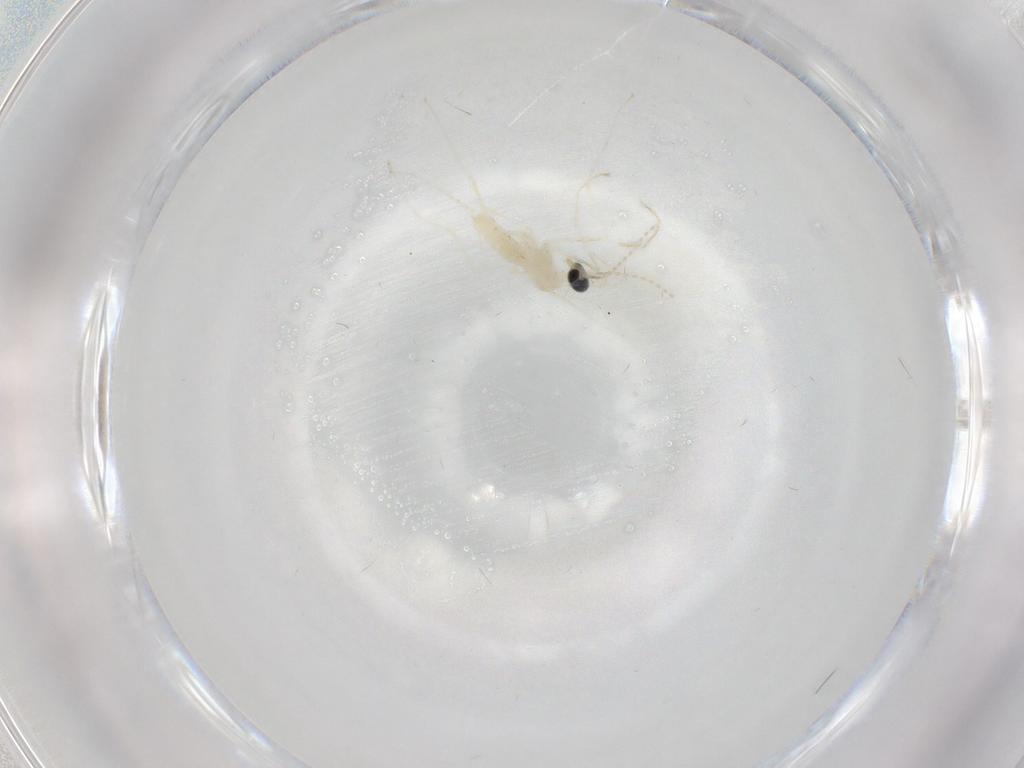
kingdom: Animalia
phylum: Arthropoda
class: Insecta
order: Diptera
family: Cecidomyiidae
